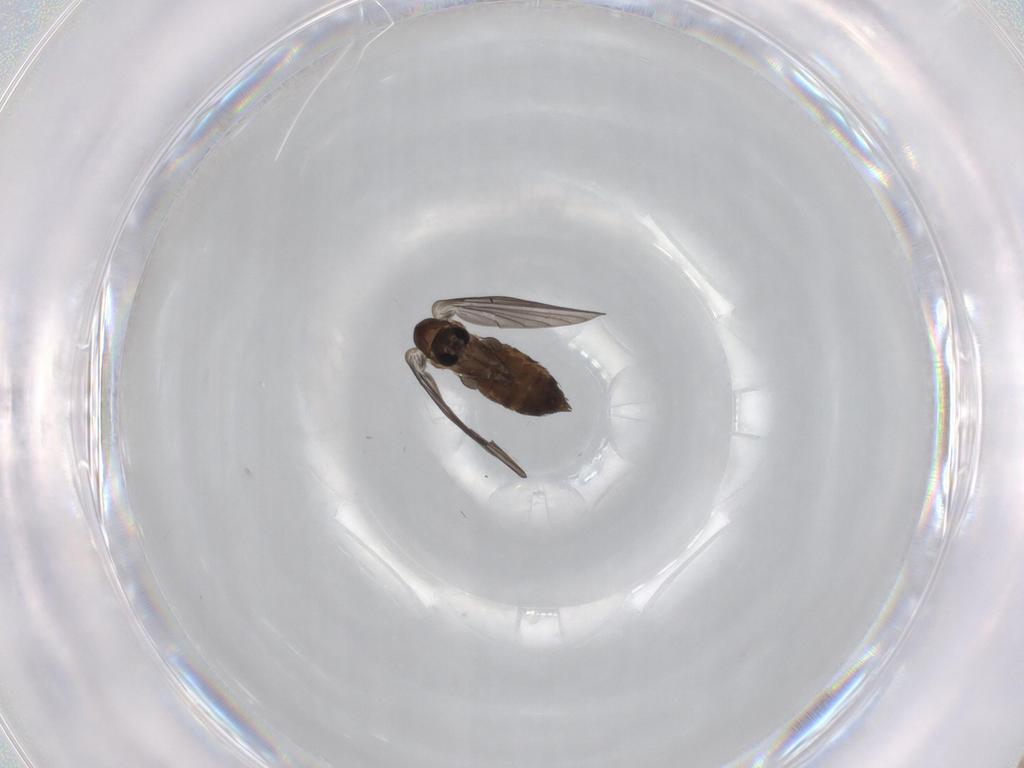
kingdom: Animalia
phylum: Arthropoda
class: Insecta
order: Diptera
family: Psychodidae
